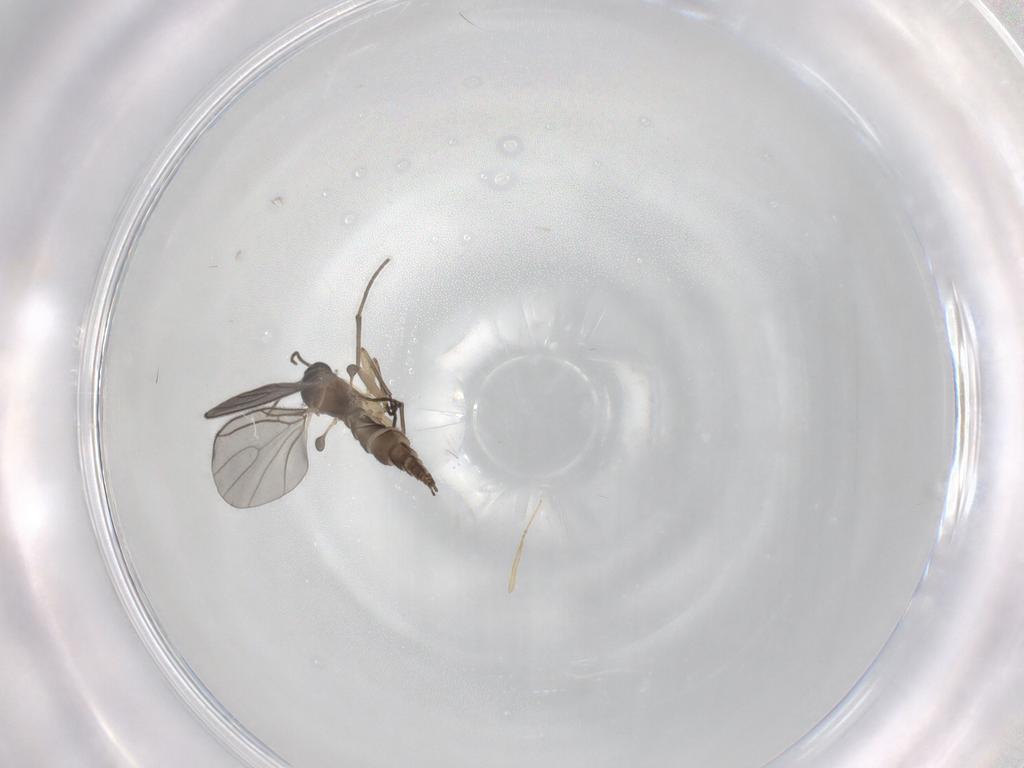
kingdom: Animalia
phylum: Arthropoda
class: Insecta
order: Diptera
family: Sciaridae
